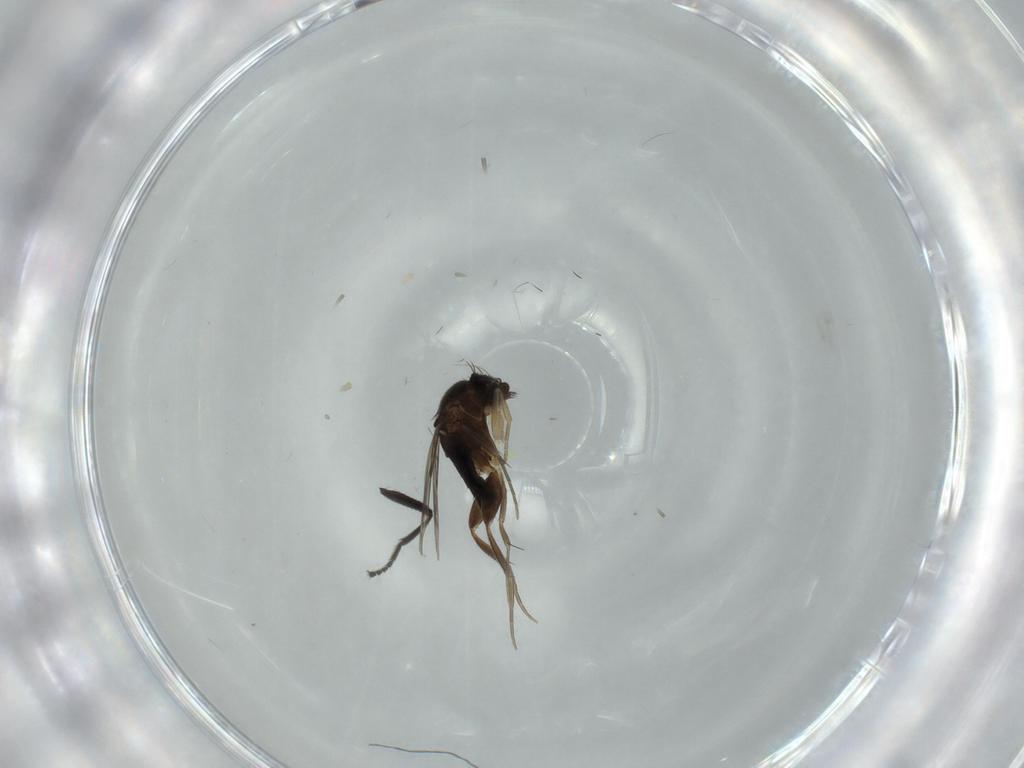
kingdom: Animalia
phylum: Arthropoda
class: Insecta
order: Diptera
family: Phoridae
